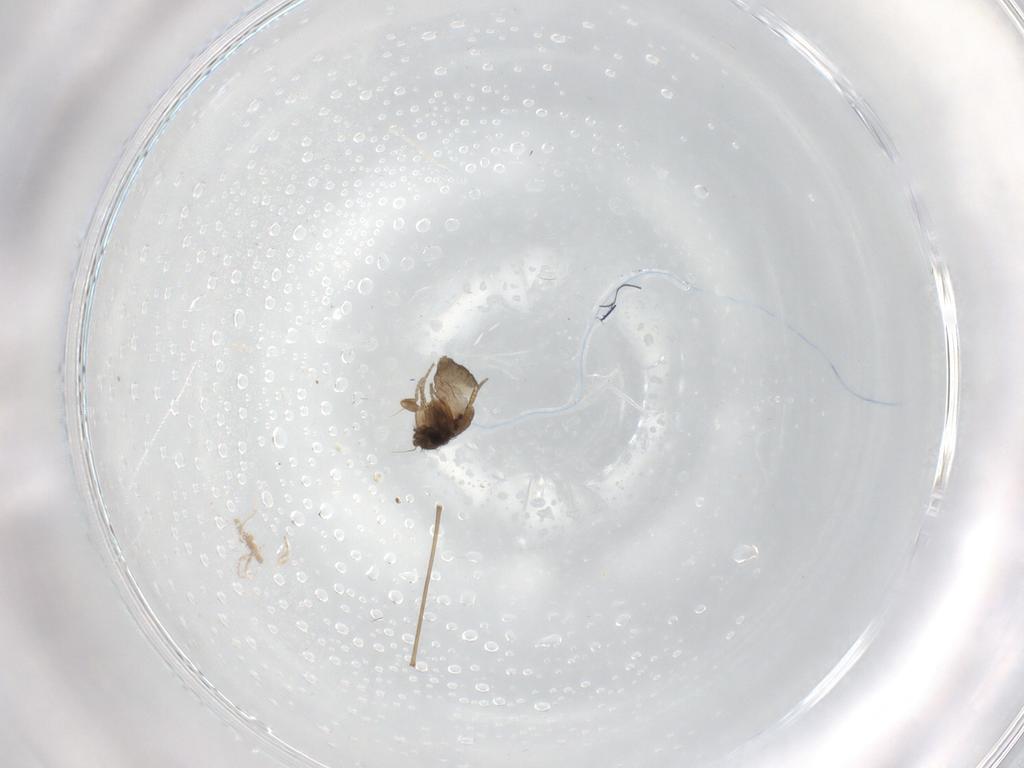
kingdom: Animalia
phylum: Arthropoda
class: Insecta
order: Diptera
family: Phoridae
